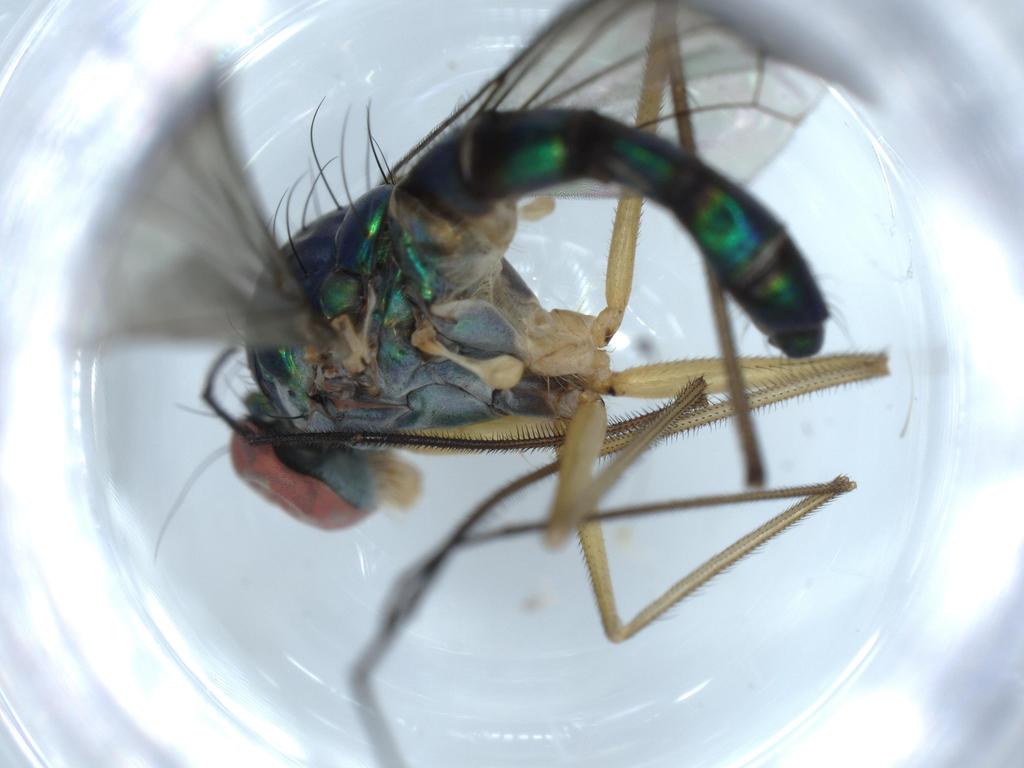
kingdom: Animalia
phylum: Arthropoda
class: Insecta
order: Diptera
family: Dolichopodidae
